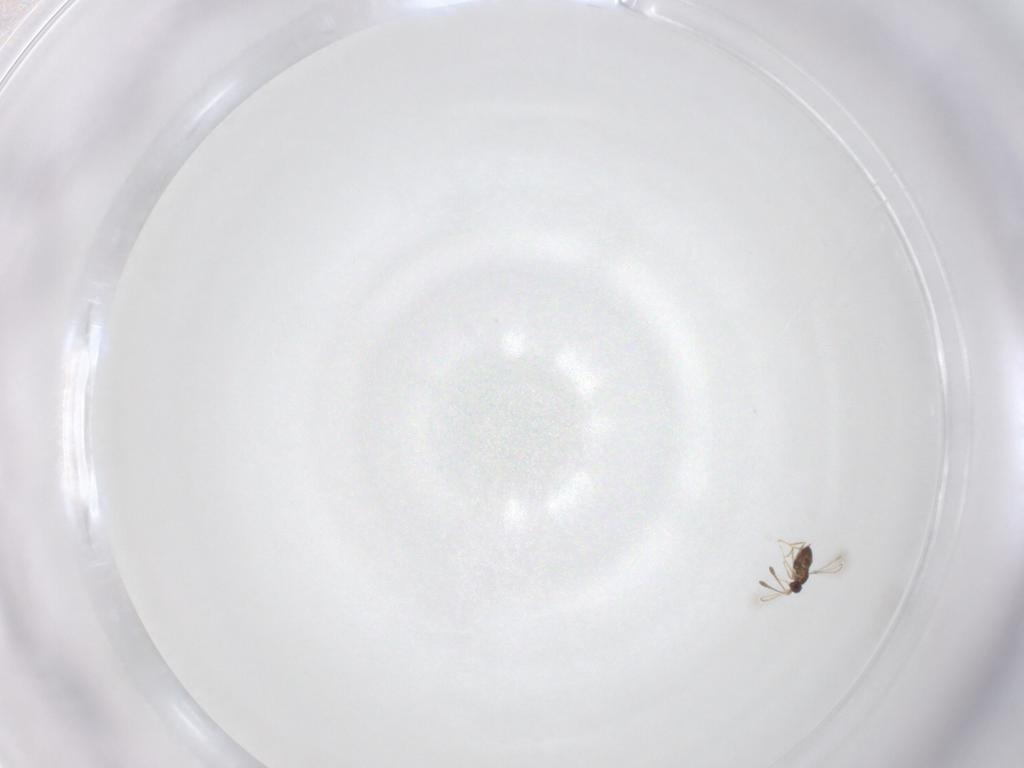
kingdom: Animalia
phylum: Arthropoda
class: Insecta
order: Hymenoptera
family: Mymaridae
